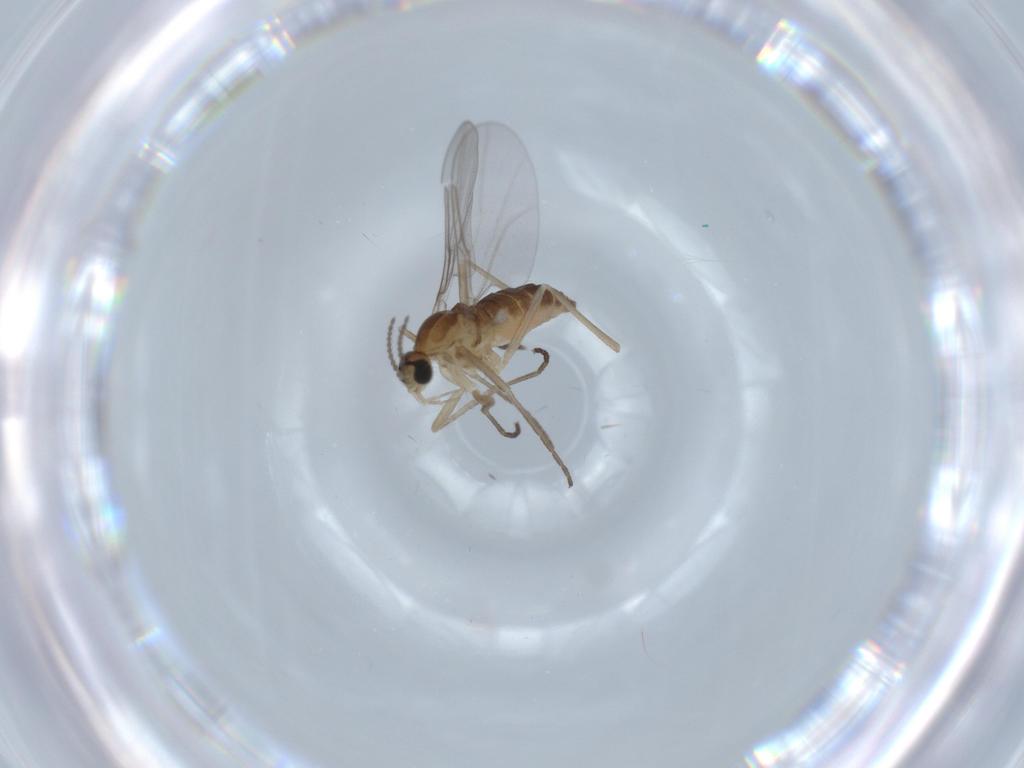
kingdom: Animalia
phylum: Arthropoda
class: Insecta
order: Diptera
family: Cecidomyiidae
